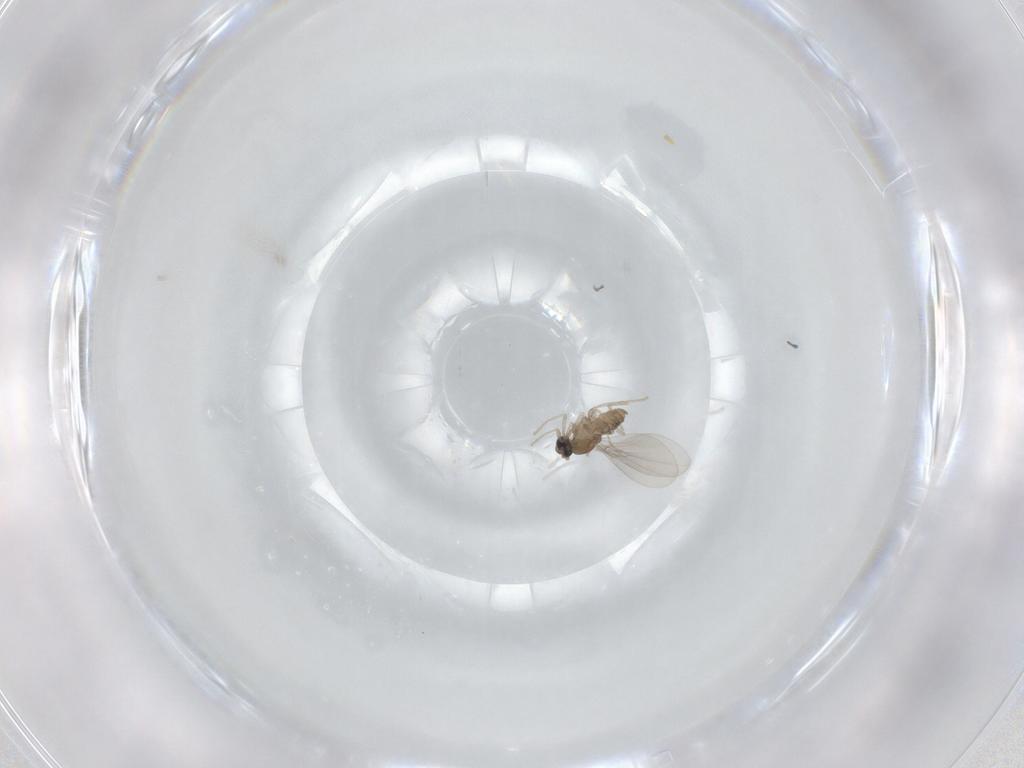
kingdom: Animalia
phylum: Arthropoda
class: Insecta
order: Diptera
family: Cecidomyiidae
